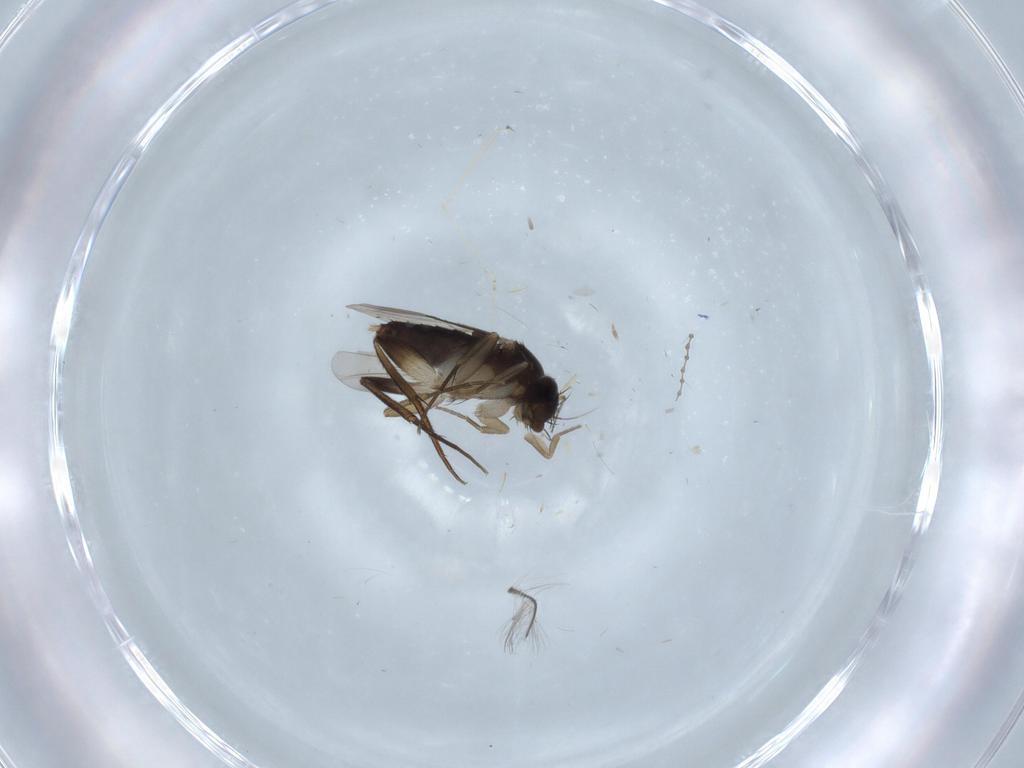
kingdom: Animalia
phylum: Arthropoda
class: Insecta
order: Diptera
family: Phoridae
